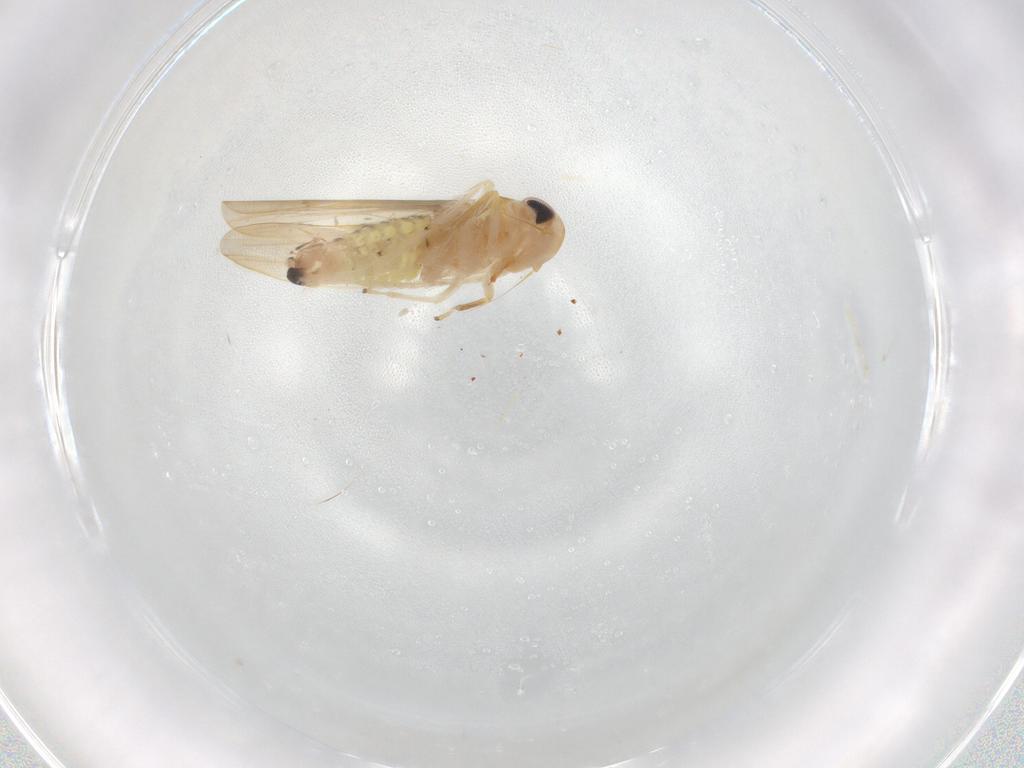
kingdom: Animalia
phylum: Arthropoda
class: Insecta
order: Hemiptera
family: Cicadellidae
